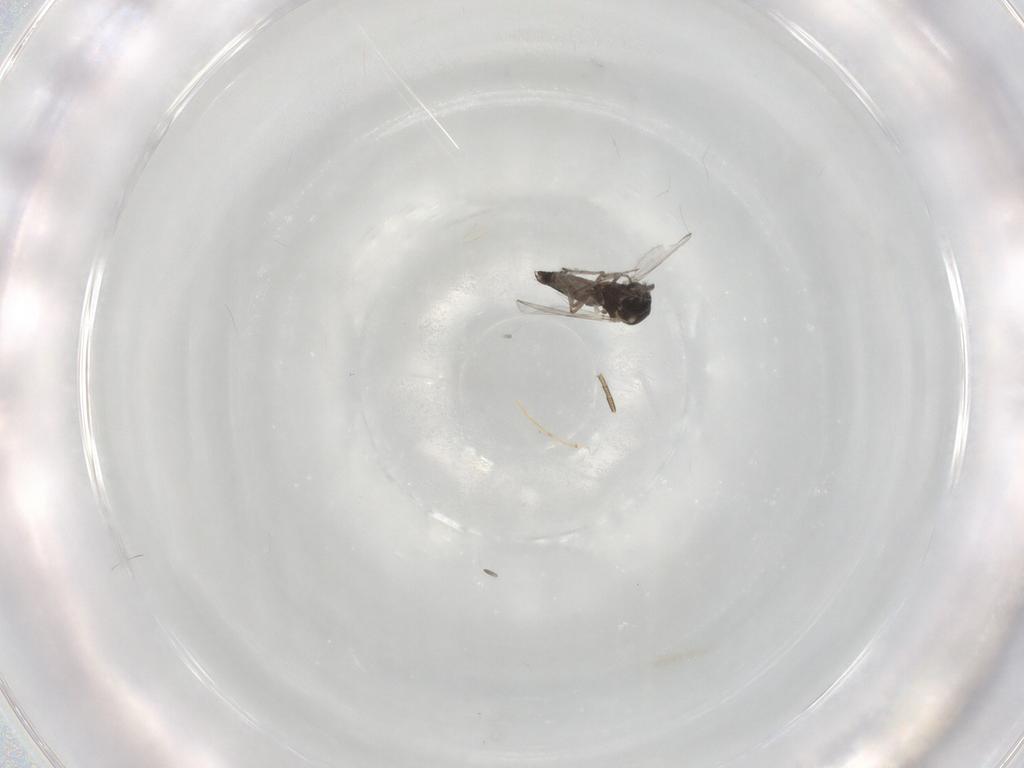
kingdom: Animalia
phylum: Arthropoda
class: Insecta
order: Diptera
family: Ceratopogonidae
